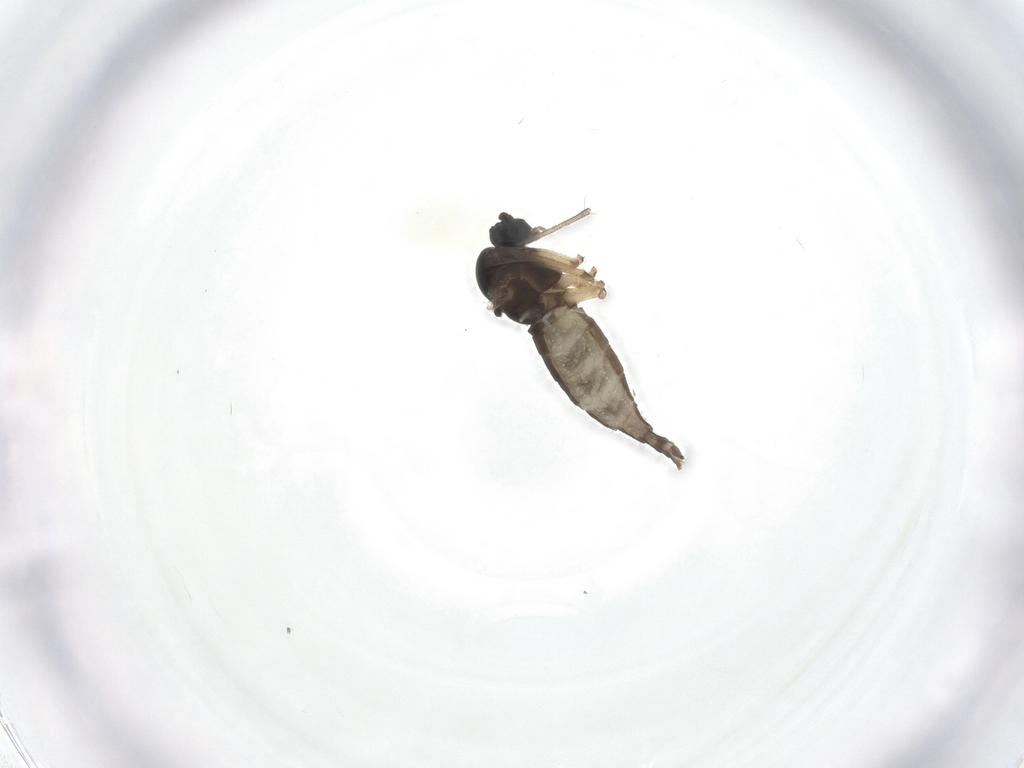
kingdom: Animalia
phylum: Arthropoda
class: Insecta
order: Diptera
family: Sciaridae
